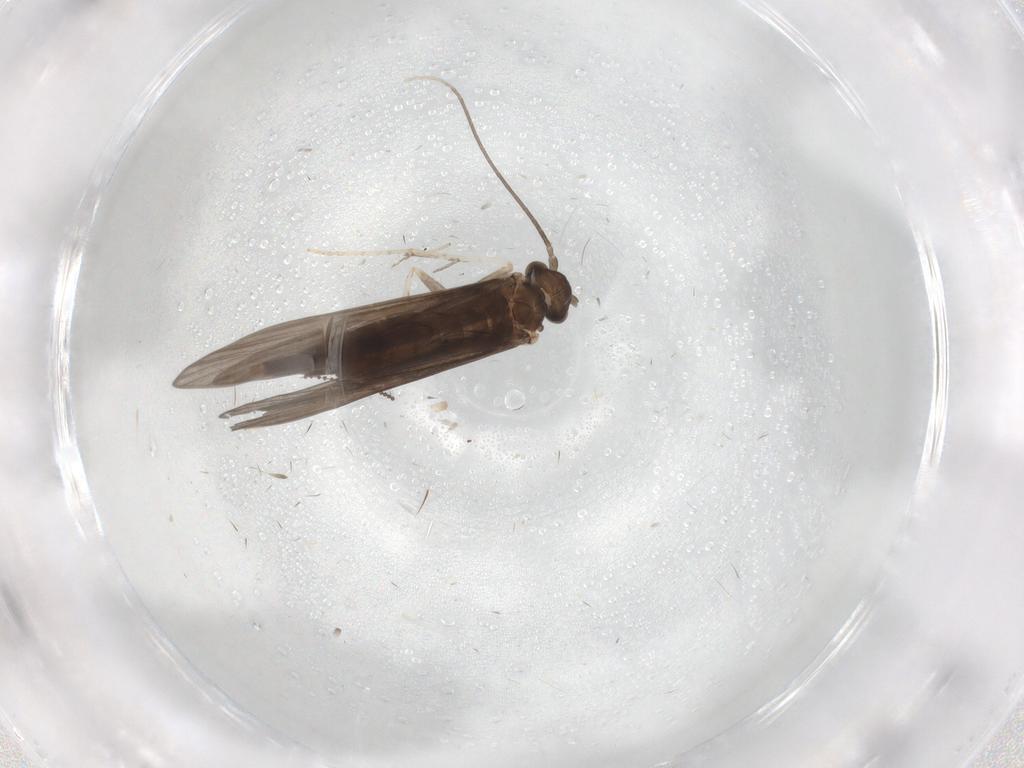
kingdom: Animalia
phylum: Arthropoda
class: Insecta
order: Trichoptera
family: Xiphocentronidae
